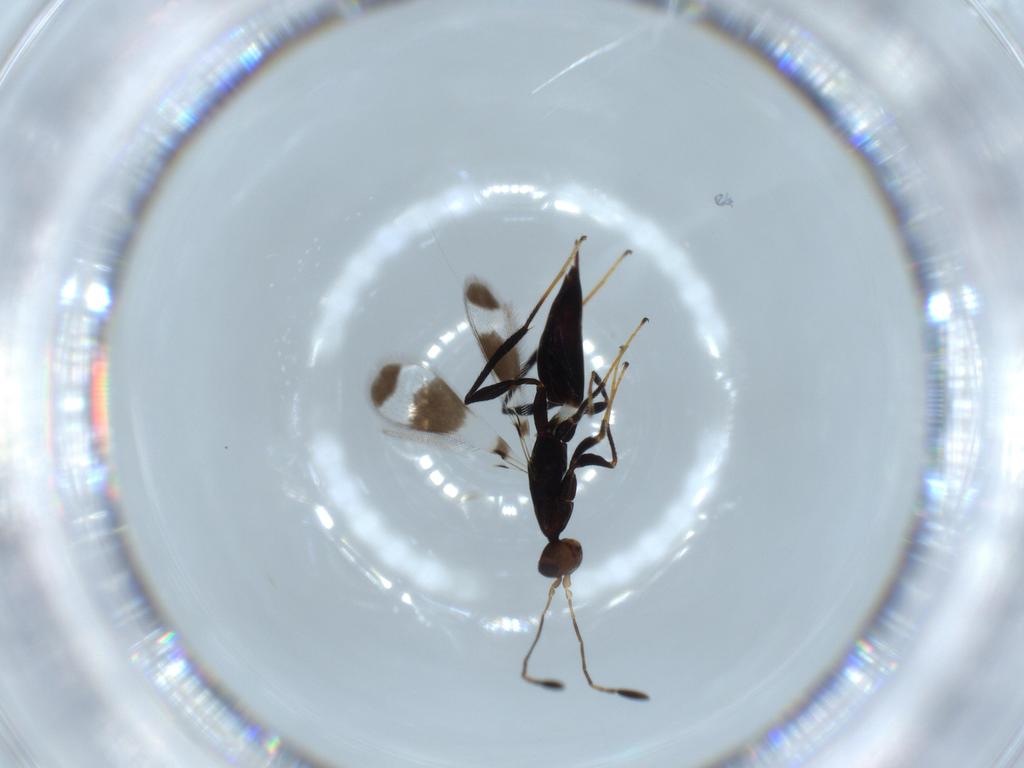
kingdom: Animalia
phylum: Arthropoda
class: Insecta
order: Hymenoptera
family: Mymaridae
